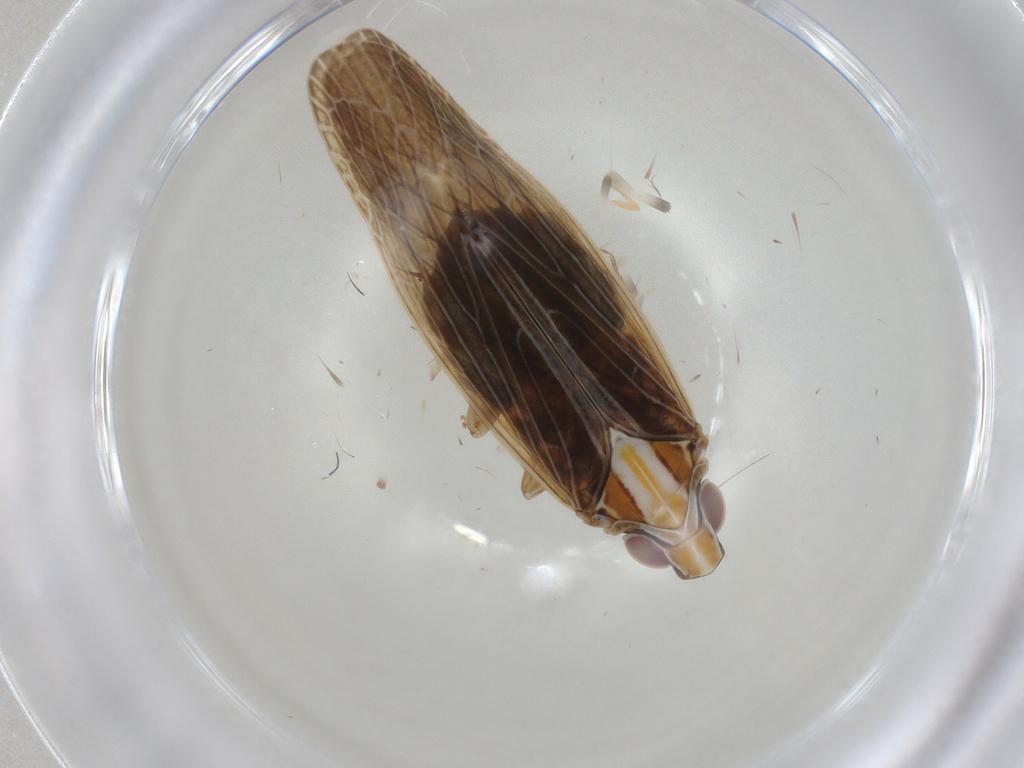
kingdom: Animalia
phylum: Arthropoda
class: Insecta
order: Hemiptera
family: Achilidae
